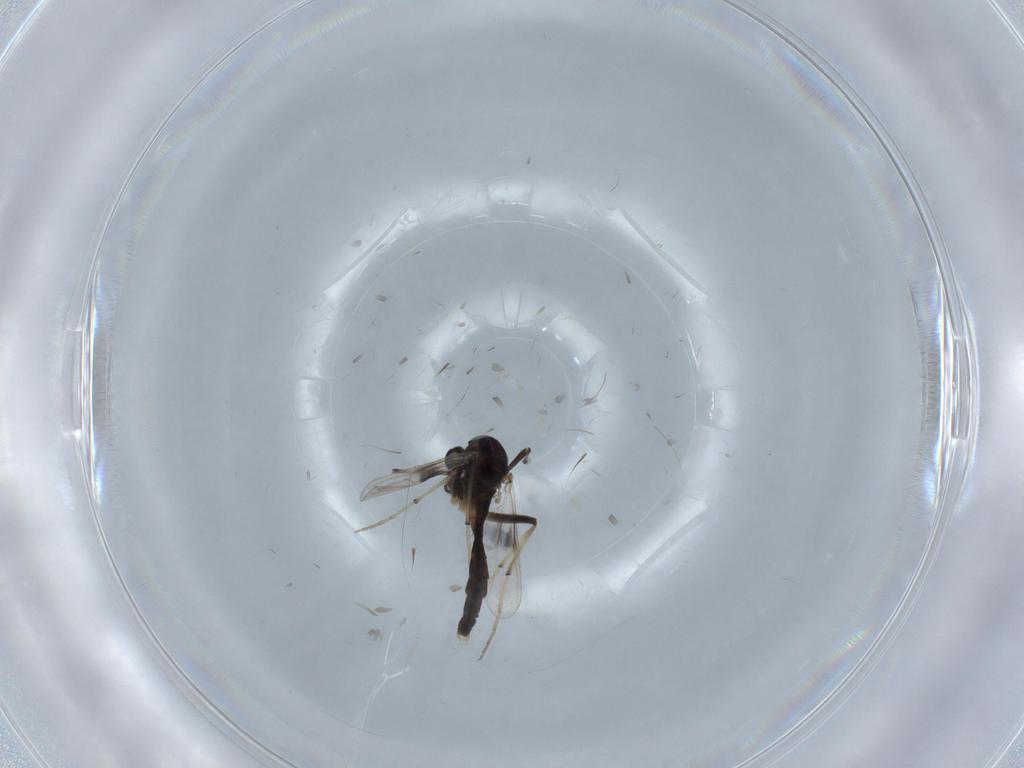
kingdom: Animalia
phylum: Arthropoda
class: Insecta
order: Diptera
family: Chironomidae
